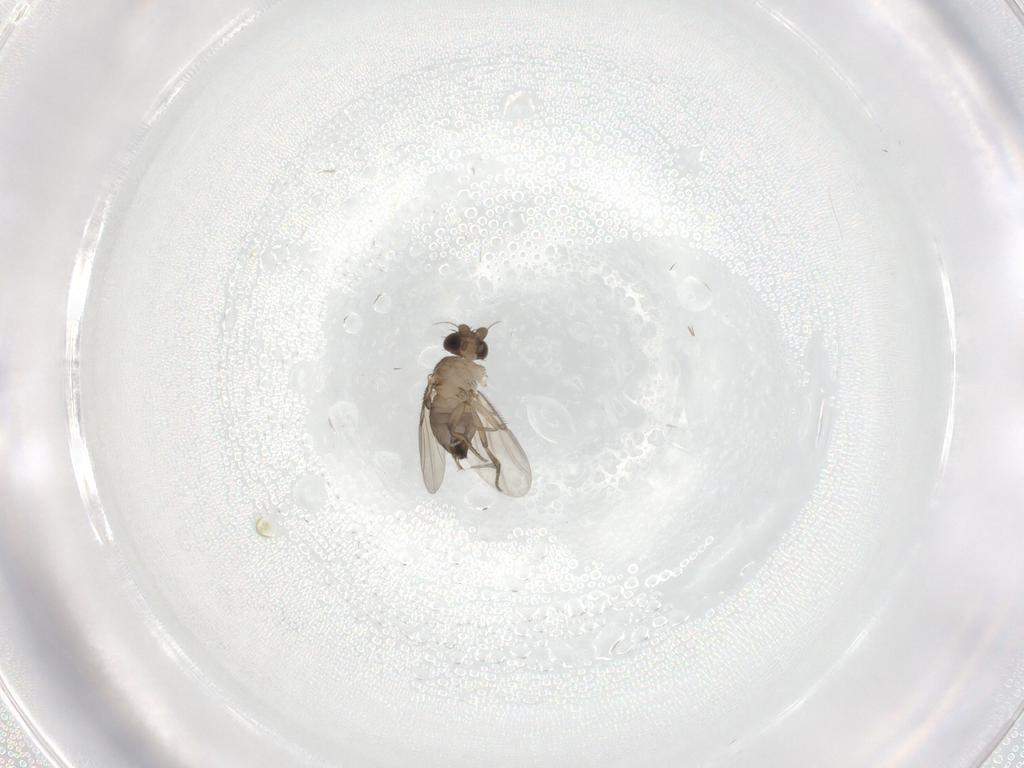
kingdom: Animalia
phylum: Arthropoda
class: Insecta
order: Diptera
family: Phoridae
